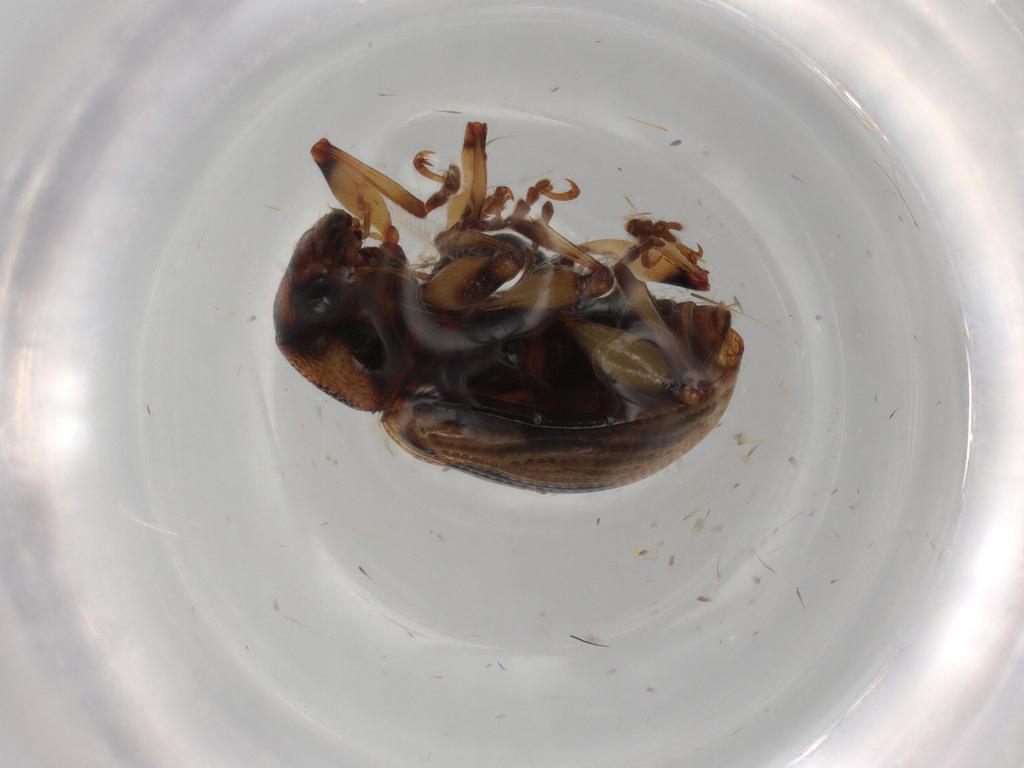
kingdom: Animalia
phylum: Arthropoda
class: Insecta
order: Coleoptera
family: Chrysomelidae
